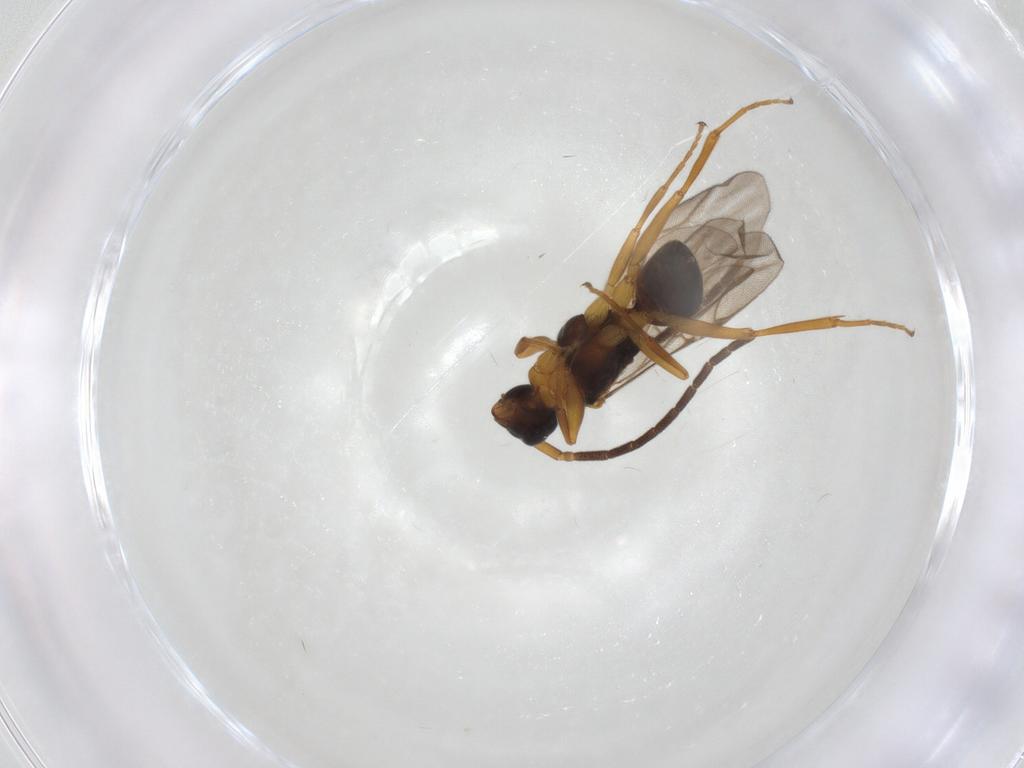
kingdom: Animalia
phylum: Arthropoda
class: Insecta
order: Hymenoptera
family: Embolemidae
